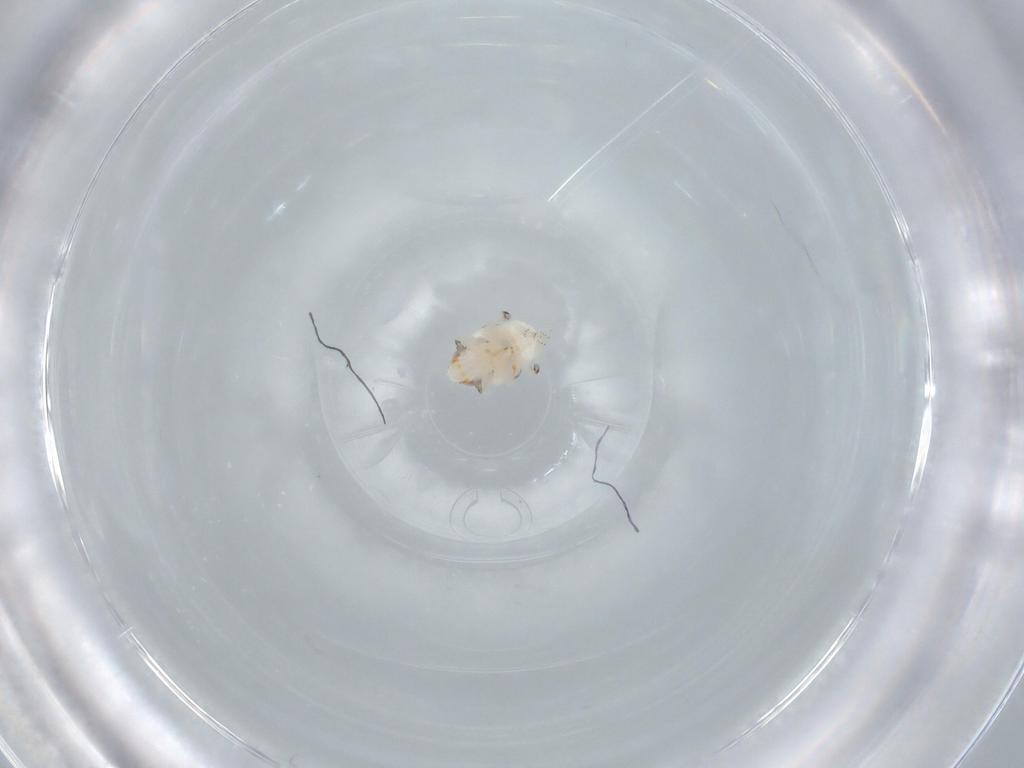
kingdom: Animalia
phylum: Arthropoda
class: Insecta
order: Hemiptera
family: Nogodinidae
